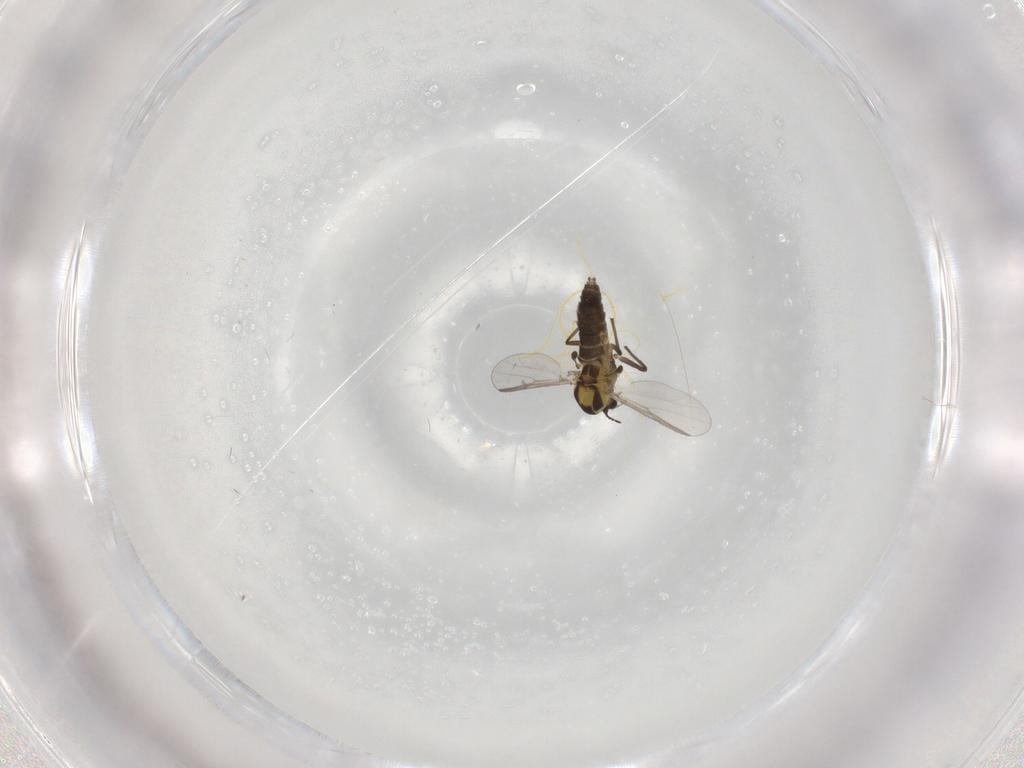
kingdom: Animalia
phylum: Arthropoda
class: Insecta
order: Diptera
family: Chironomidae
